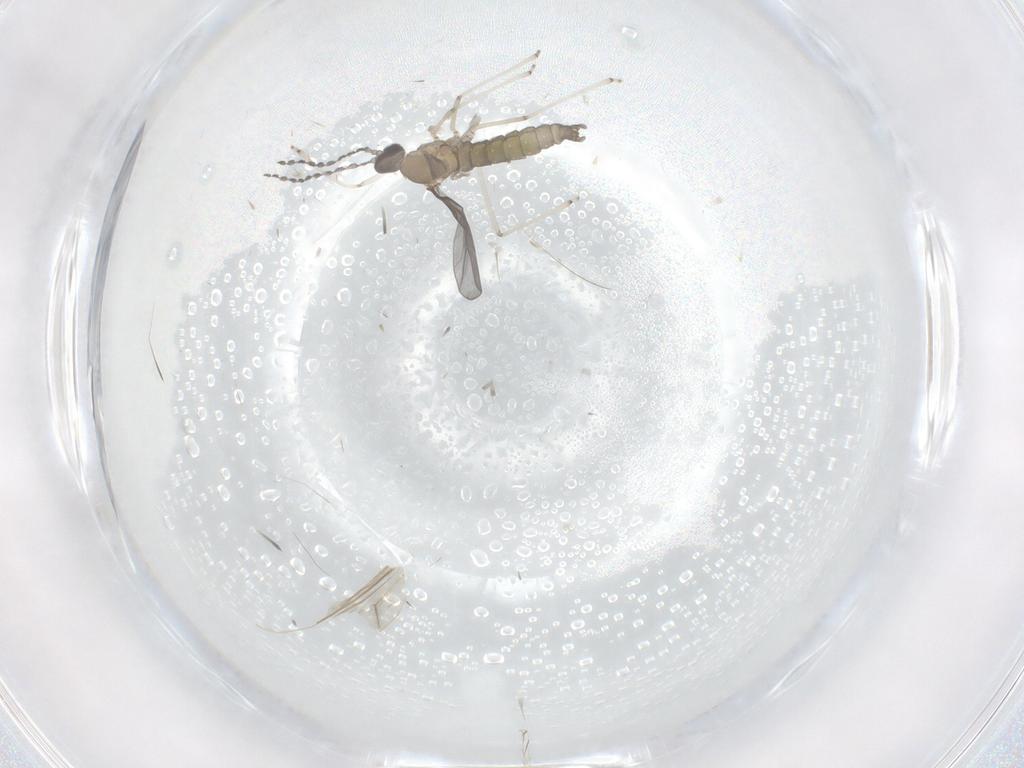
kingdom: Animalia
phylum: Arthropoda
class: Insecta
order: Diptera
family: Cecidomyiidae
